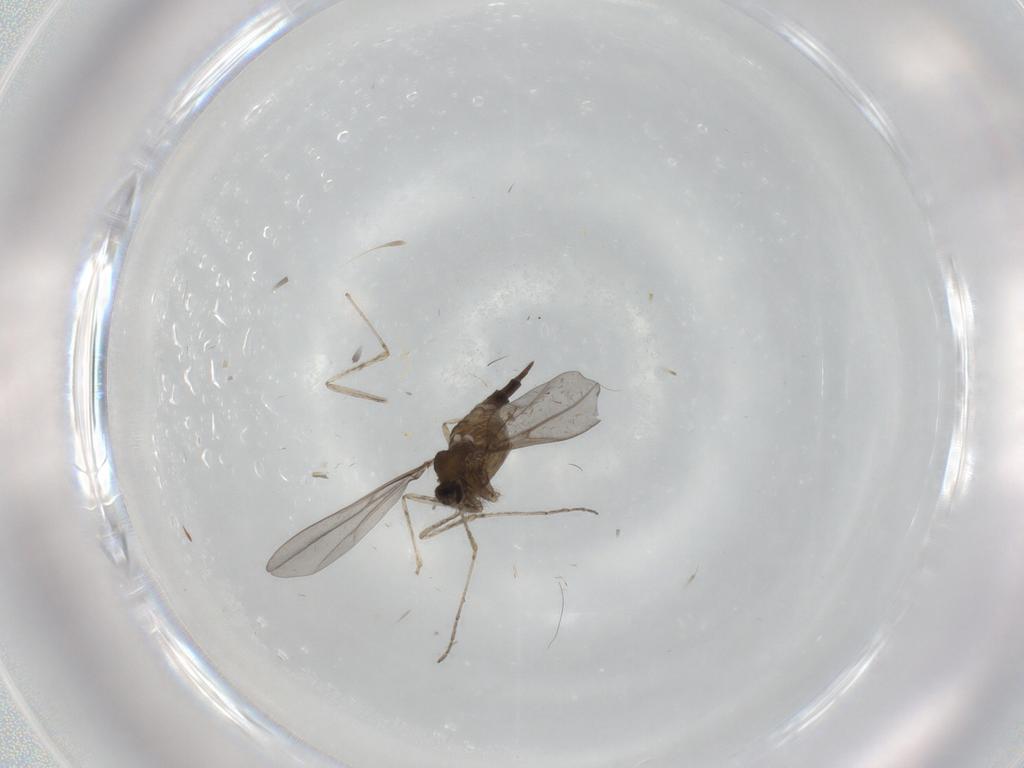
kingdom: Animalia
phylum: Arthropoda
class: Insecta
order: Diptera
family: Cecidomyiidae
